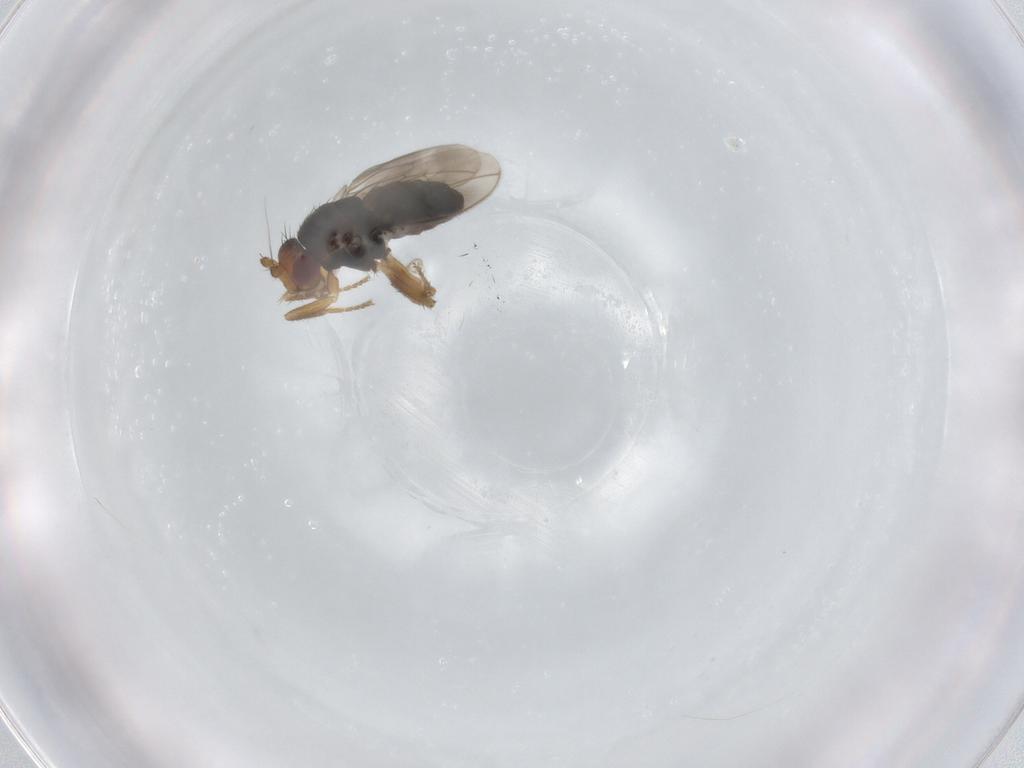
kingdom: Animalia
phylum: Arthropoda
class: Insecta
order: Diptera
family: Sphaeroceridae
